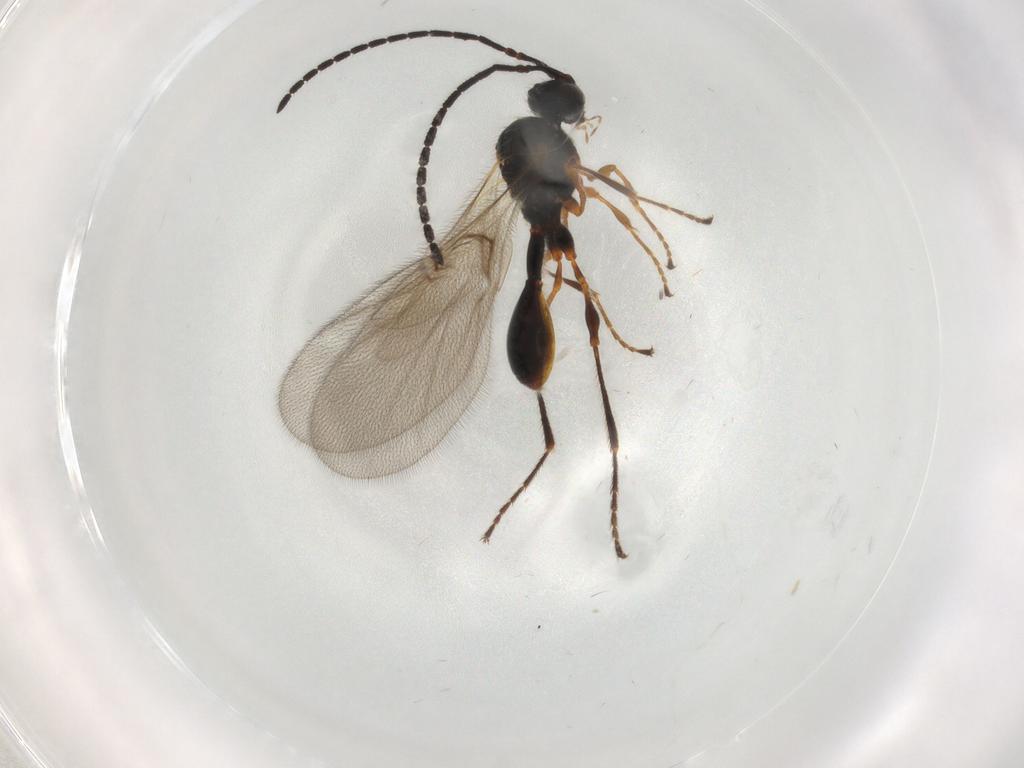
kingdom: Animalia
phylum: Arthropoda
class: Insecta
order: Hymenoptera
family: Diapriidae
